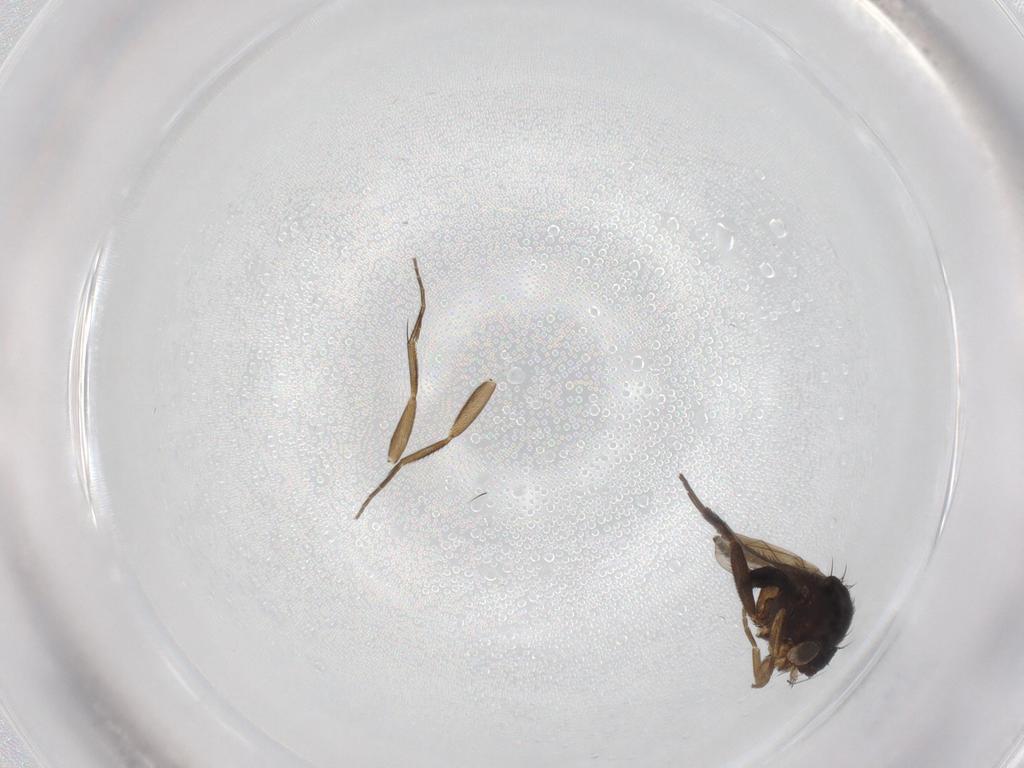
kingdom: Animalia
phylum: Arthropoda
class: Insecta
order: Diptera
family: Phoridae
